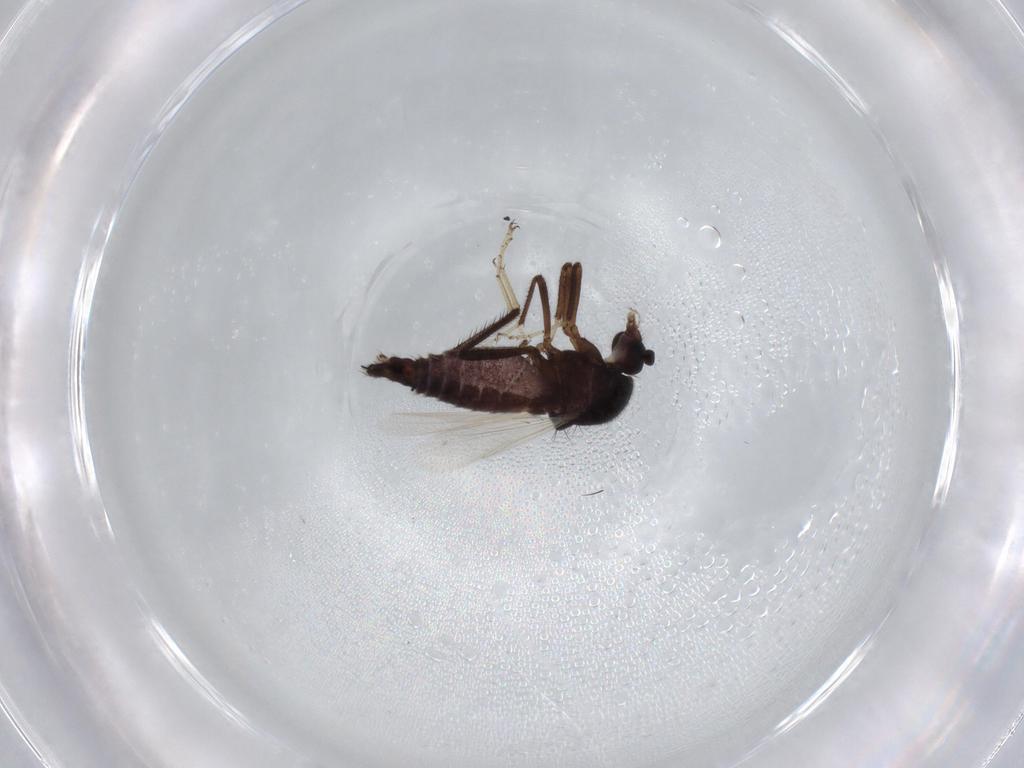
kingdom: Animalia
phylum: Arthropoda
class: Insecta
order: Diptera
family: Ceratopogonidae
